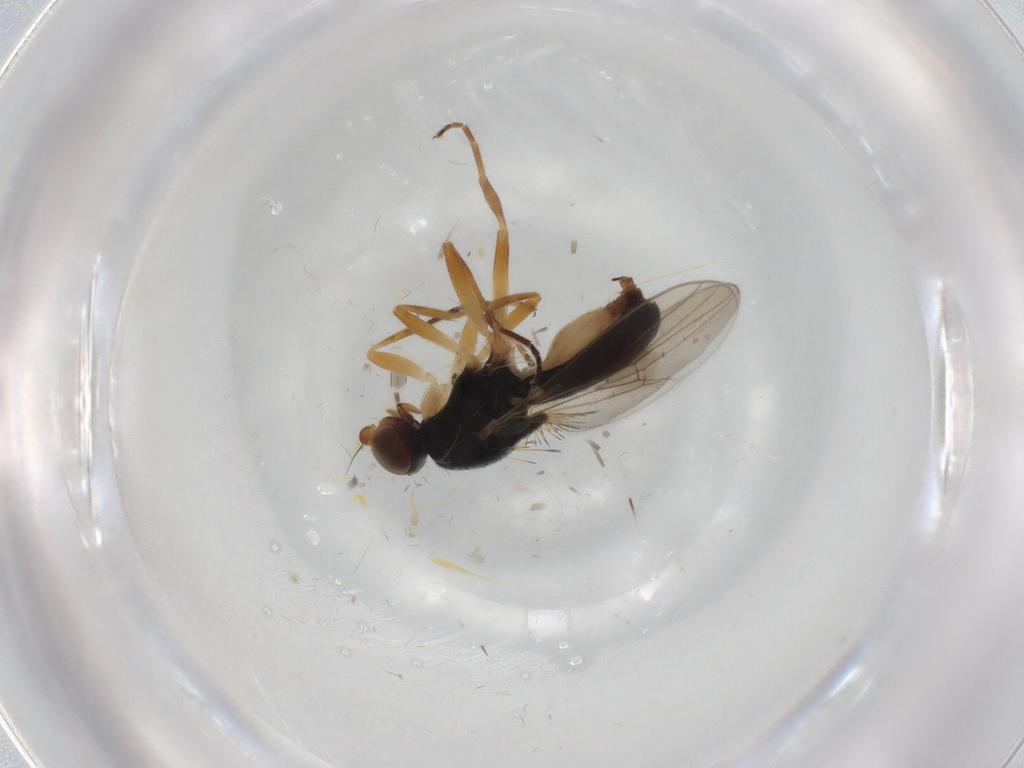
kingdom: Animalia
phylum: Arthropoda
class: Insecta
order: Diptera
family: Chloropidae
